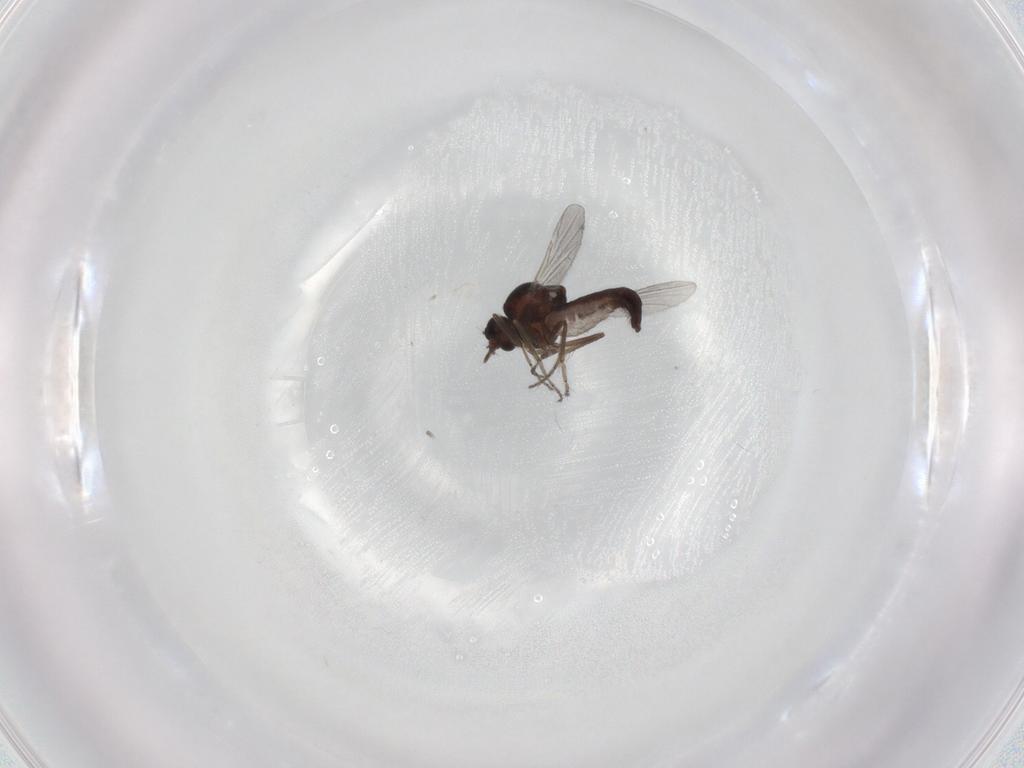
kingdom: Animalia
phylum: Arthropoda
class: Insecta
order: Diptera
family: Ceratopogonidae
